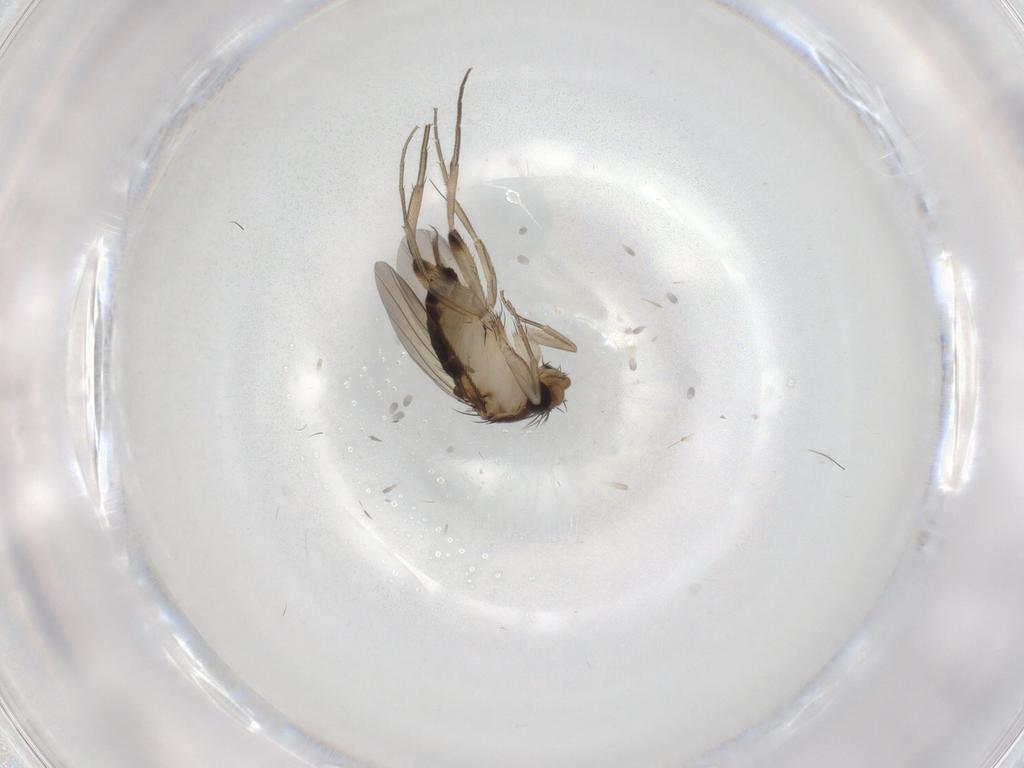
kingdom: Animalia
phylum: Arthropoda
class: Insecta
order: Diptera
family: Phoridae
